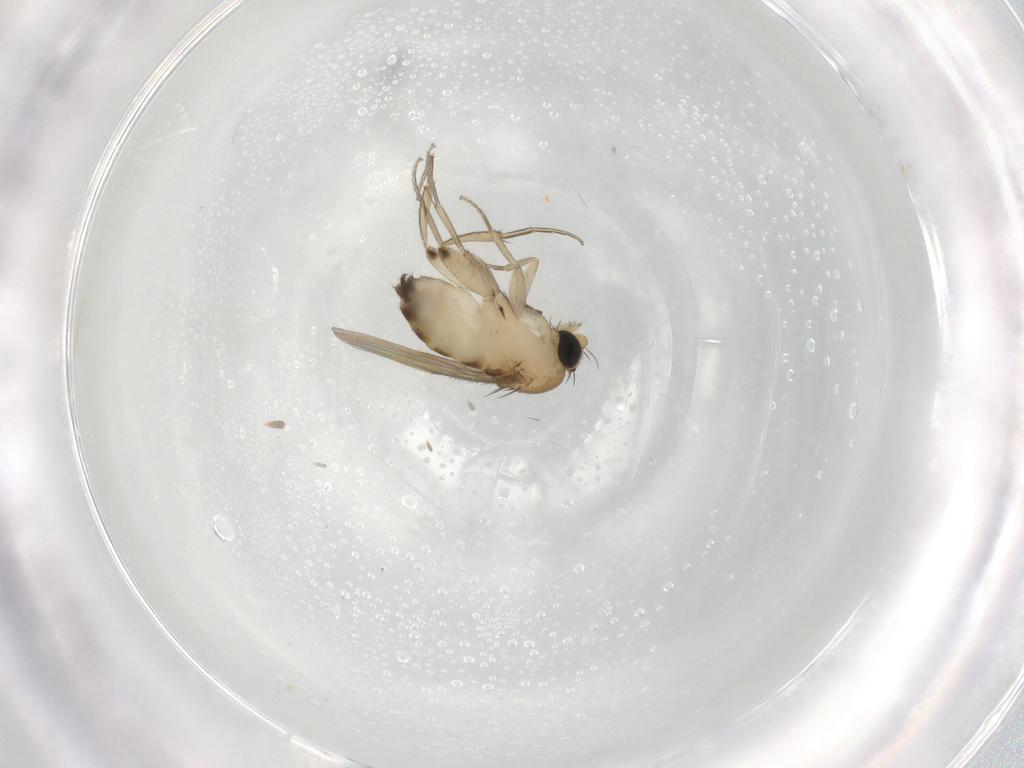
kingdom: Animalia
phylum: Arthropoda
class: Insecta
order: Diptera
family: Phoridae
